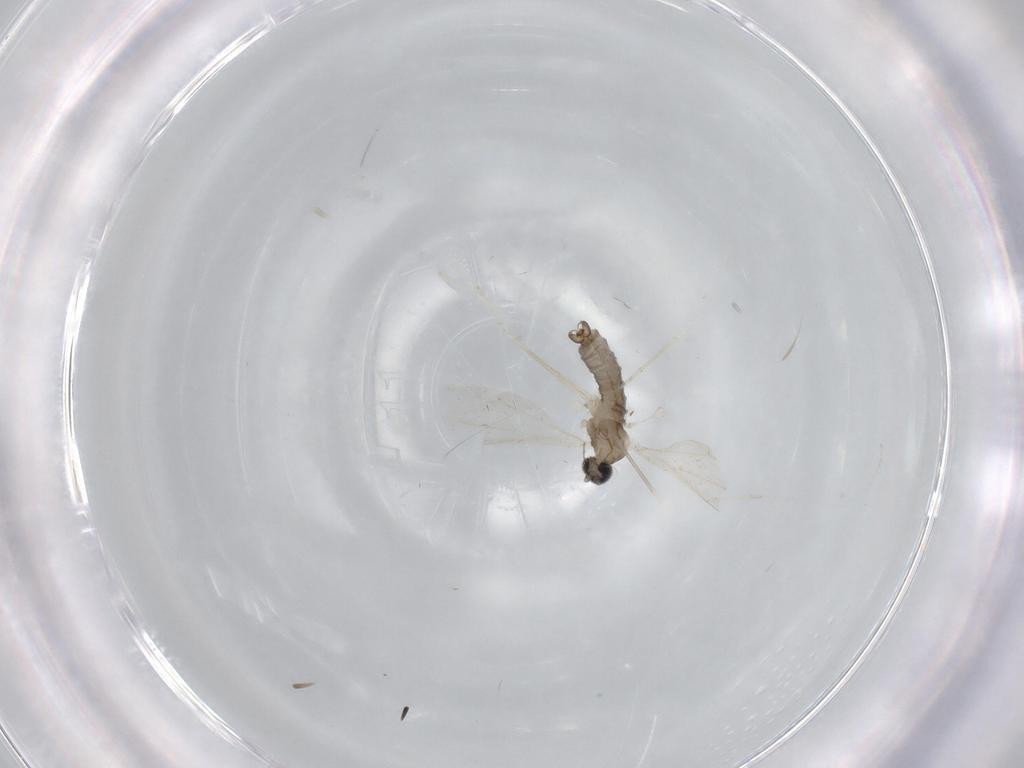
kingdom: Animalia
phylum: Arthropoda
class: Insecta
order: Diptera
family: Cecidomyiidae
